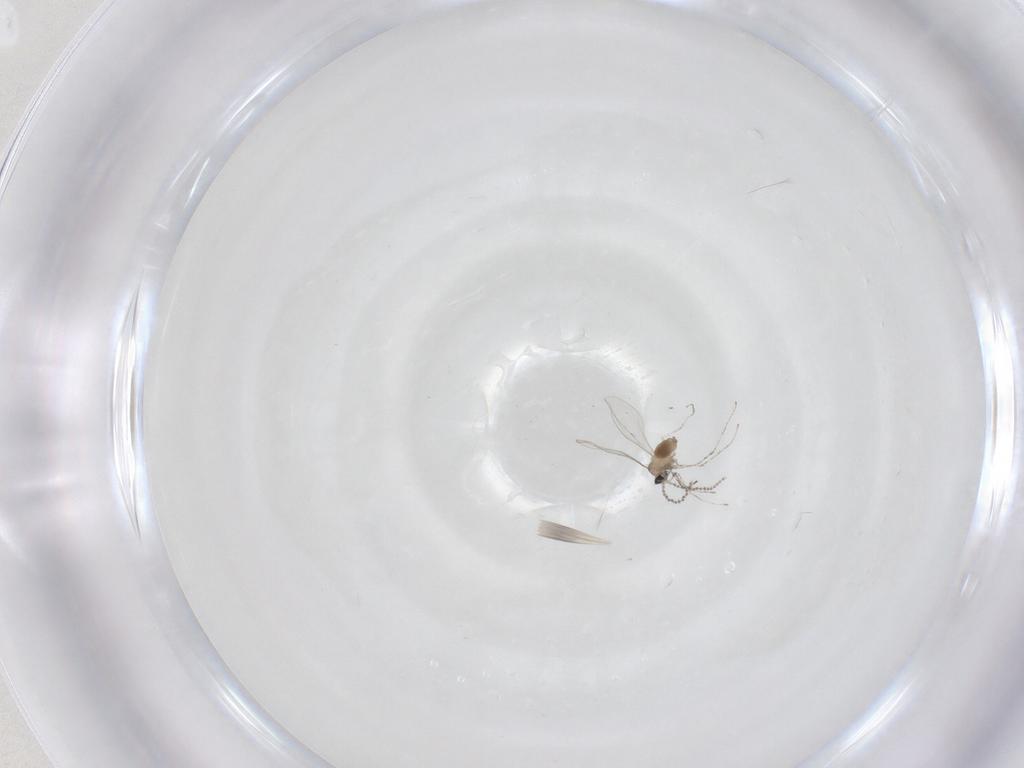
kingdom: Animalia
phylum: Arthropoda
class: Insecta
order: Diptera
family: Cecidomyiidae
